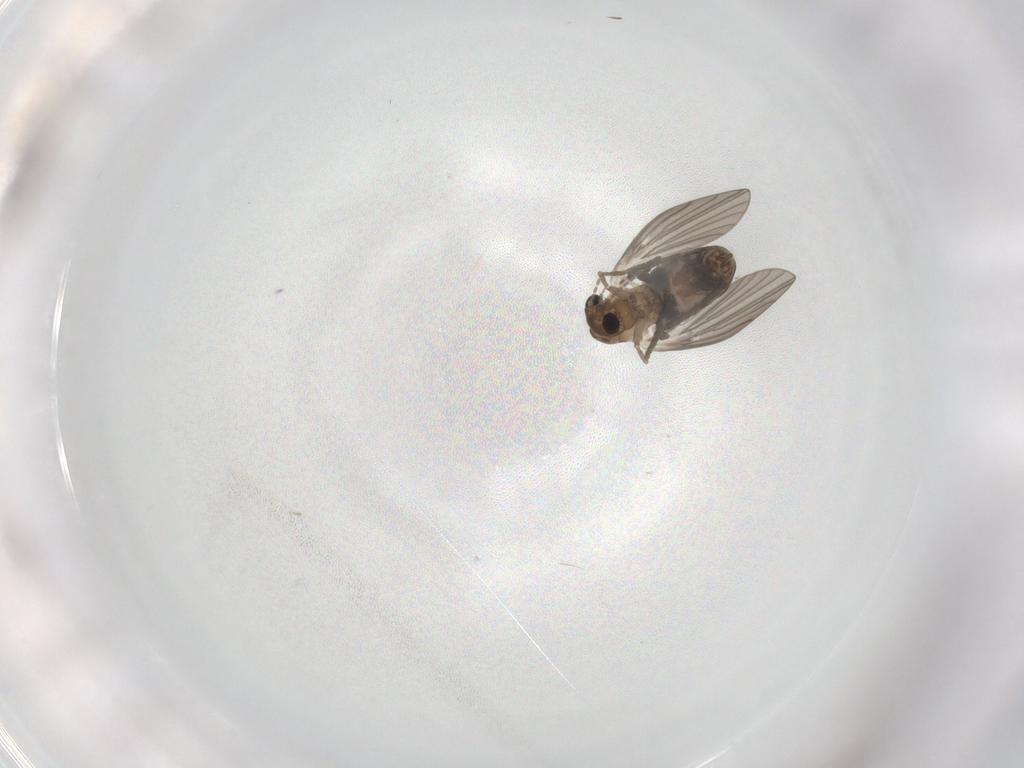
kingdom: Animalia
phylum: Arthropoda
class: Insecta
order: Diptera
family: Psychodidae
